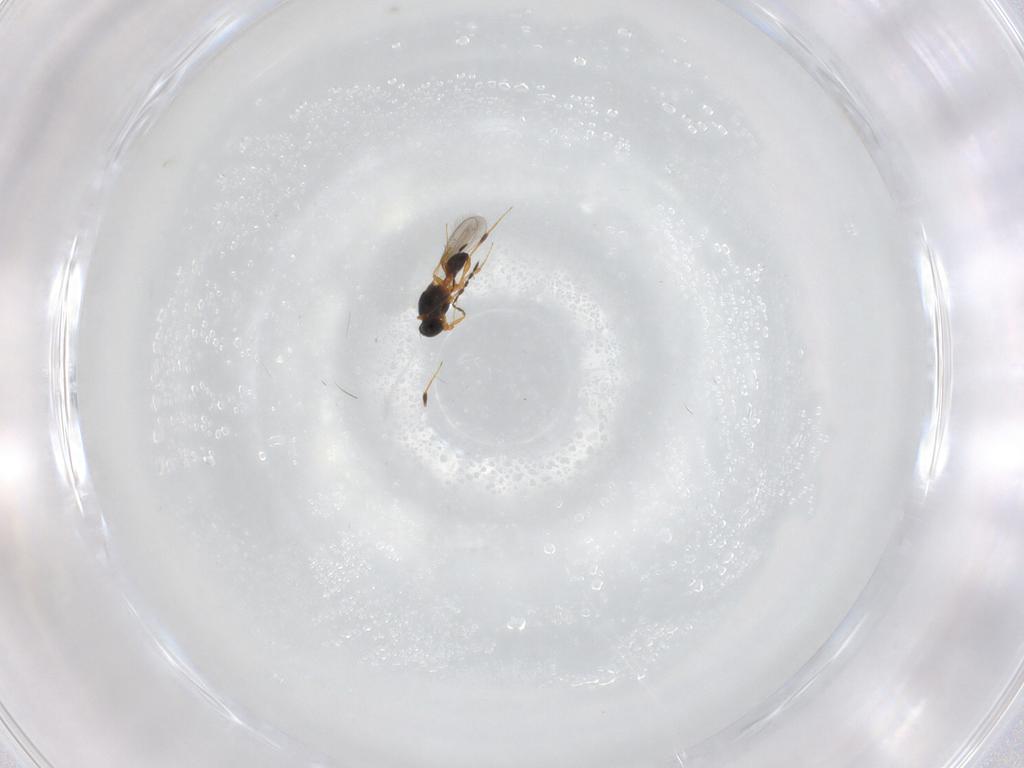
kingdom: Animalia
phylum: Arthropoda
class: Insecta
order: Hymenoptera
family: Platygastridae
